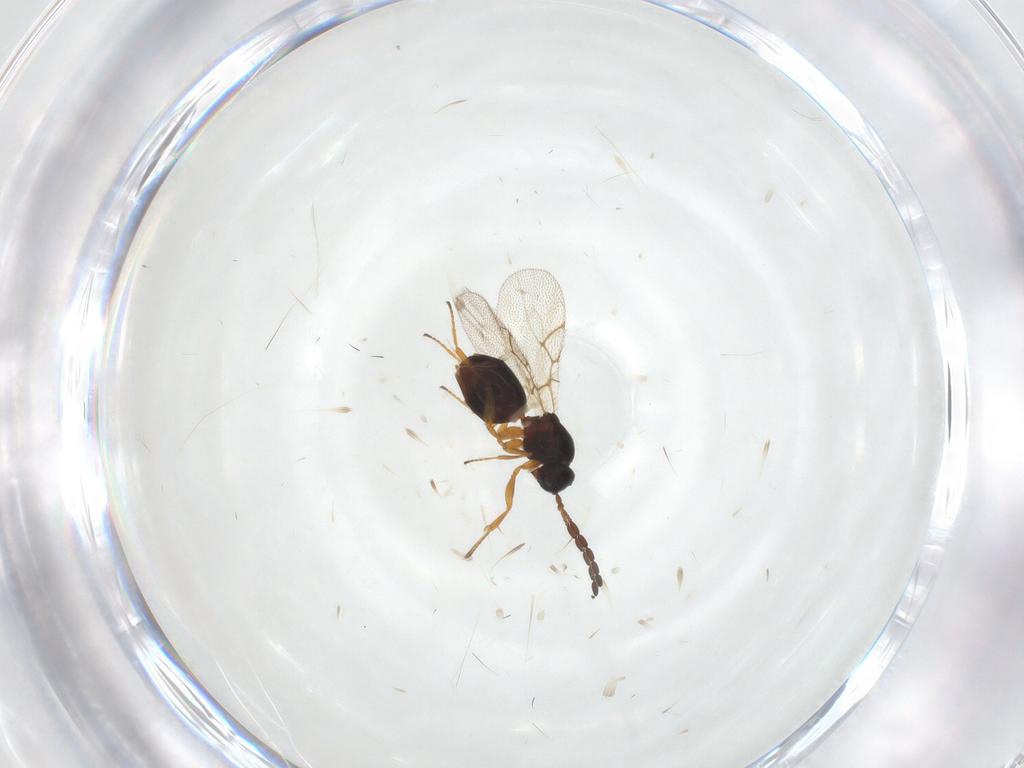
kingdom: Animalia
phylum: Arthropoda
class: Insecta
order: Hymenoptera
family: Figitidae
